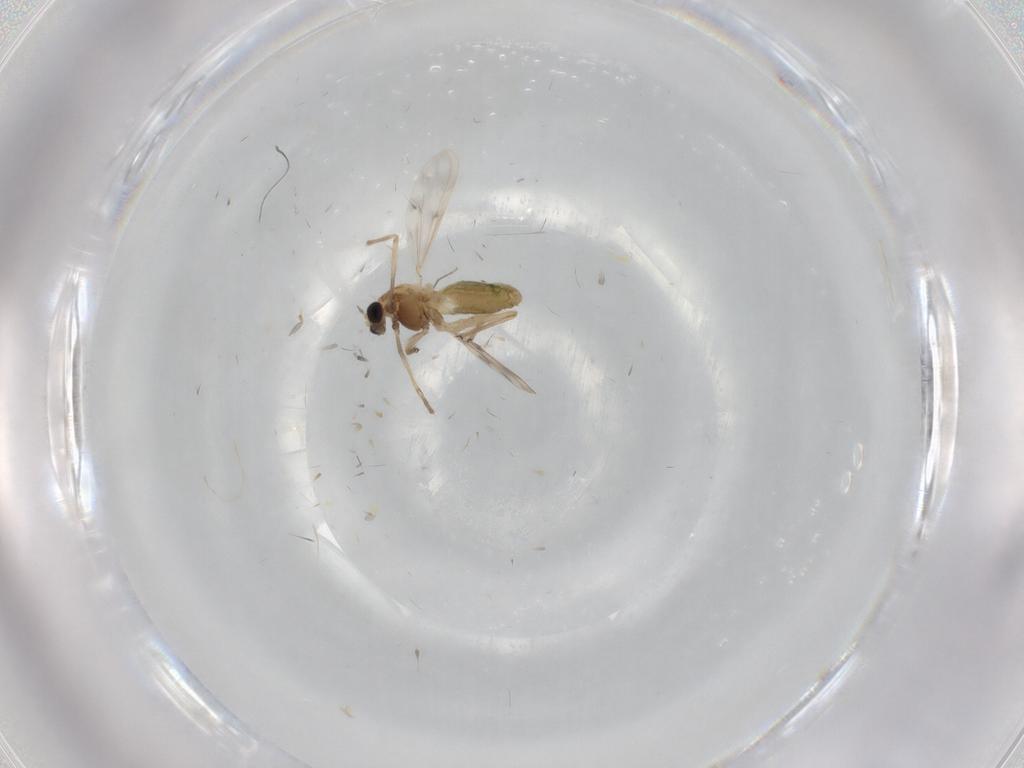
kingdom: Animalia
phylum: Arthropoda
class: Insecta
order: Diptera
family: Chironomidae
